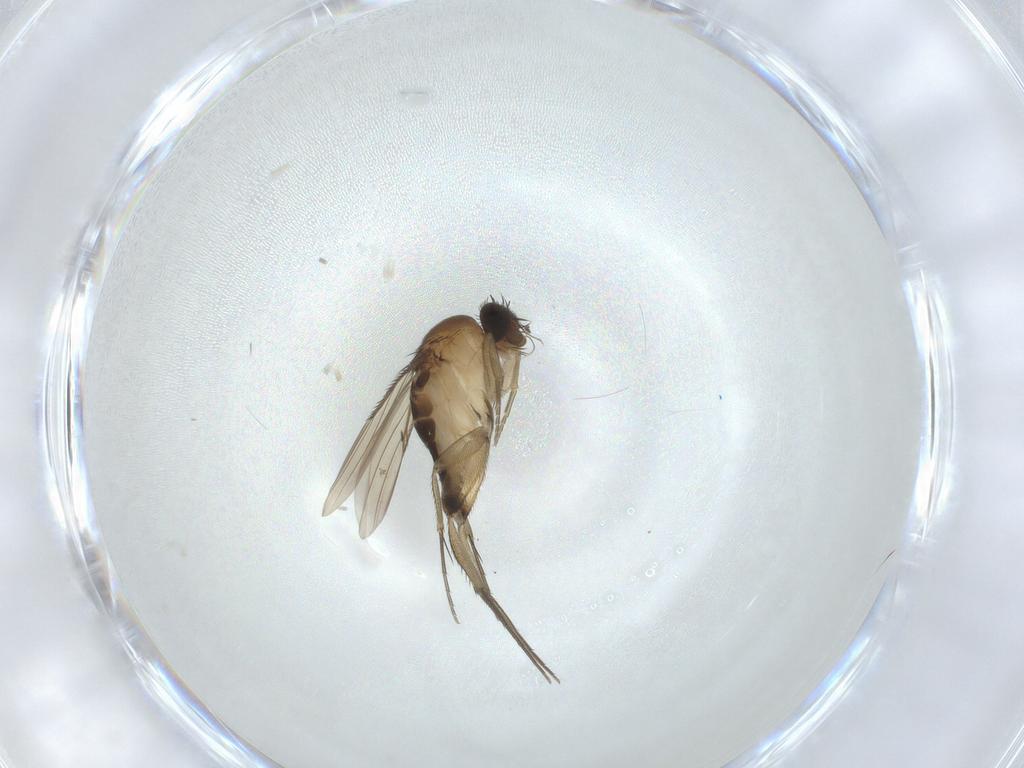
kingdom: Animalia
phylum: Arthropoda
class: Insecta
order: Diptera
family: Phoridae
